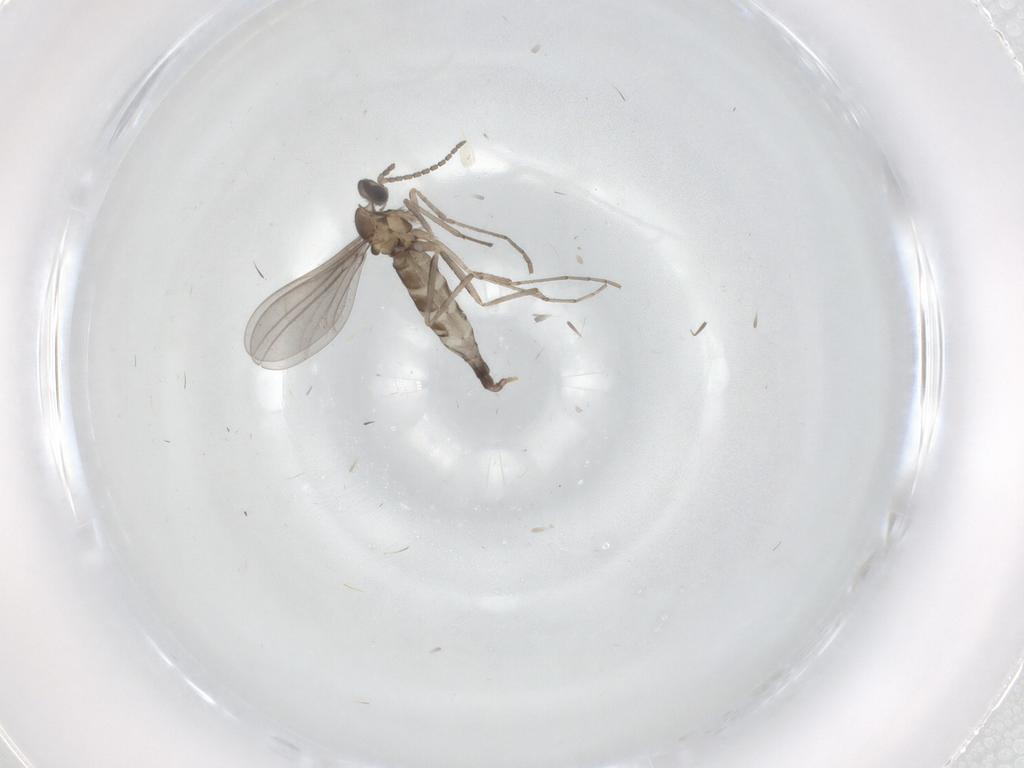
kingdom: Animalia
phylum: Arthropoda
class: Insecta
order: Diptera
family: Cecidomyiidae
